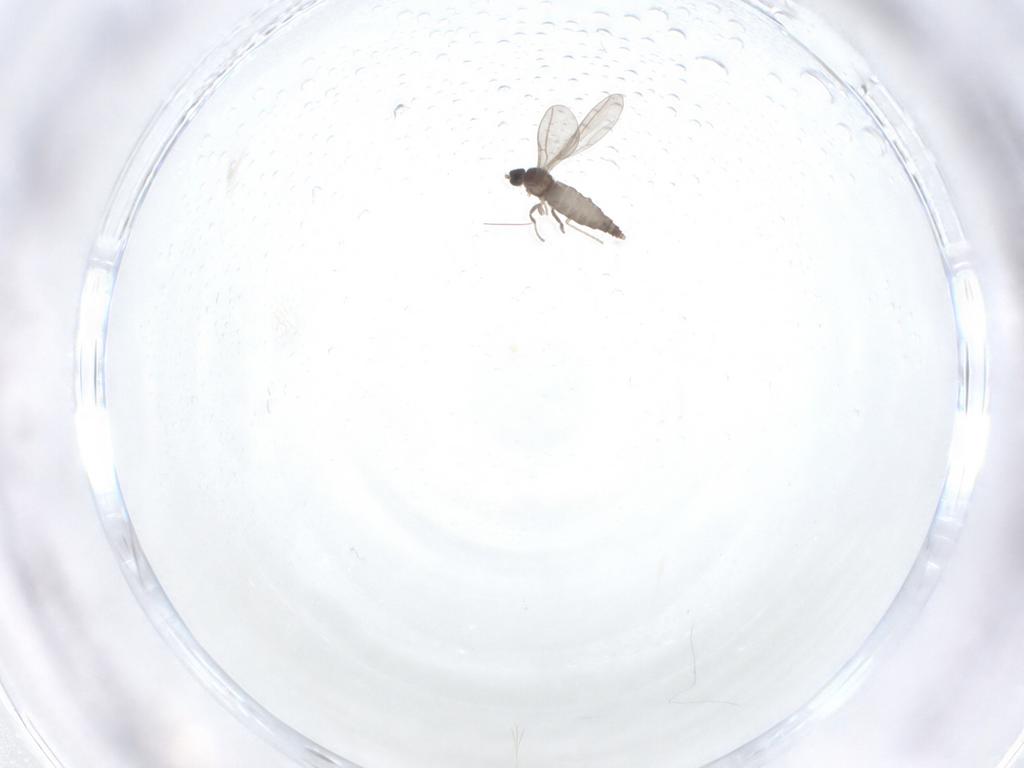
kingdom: Animalia
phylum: Arthropoda
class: Insecta
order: Diptera
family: Cecidomyiidae
